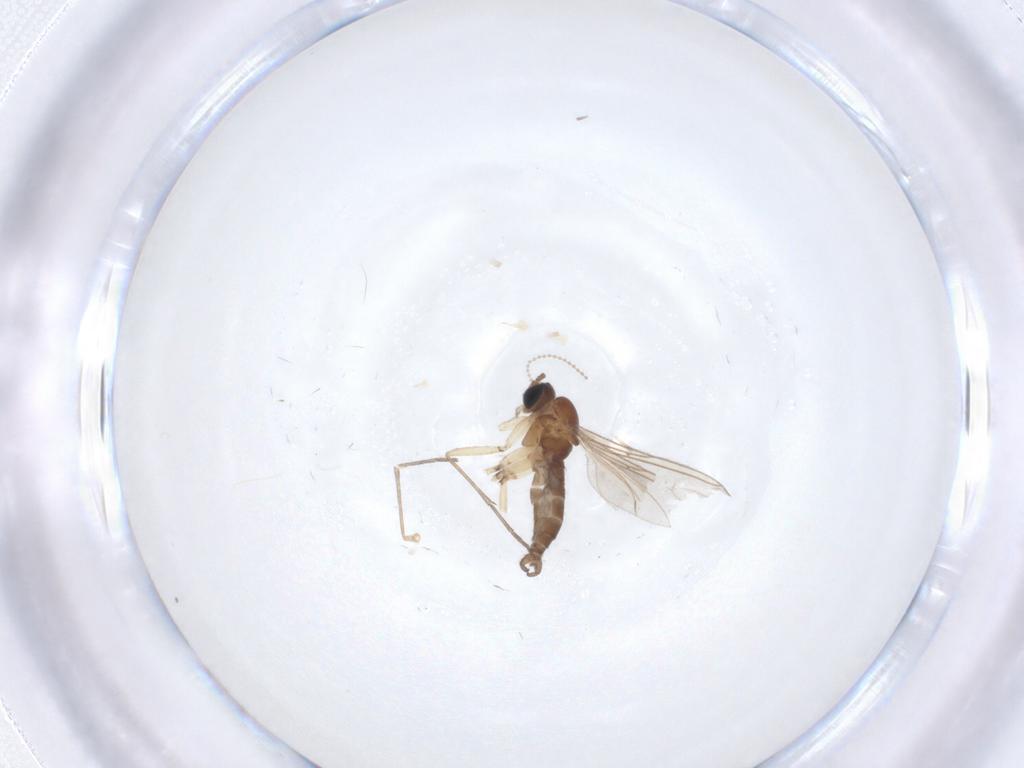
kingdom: Animalia
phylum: Arthropoda
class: Insecta
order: Diptera
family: Sciaridae
